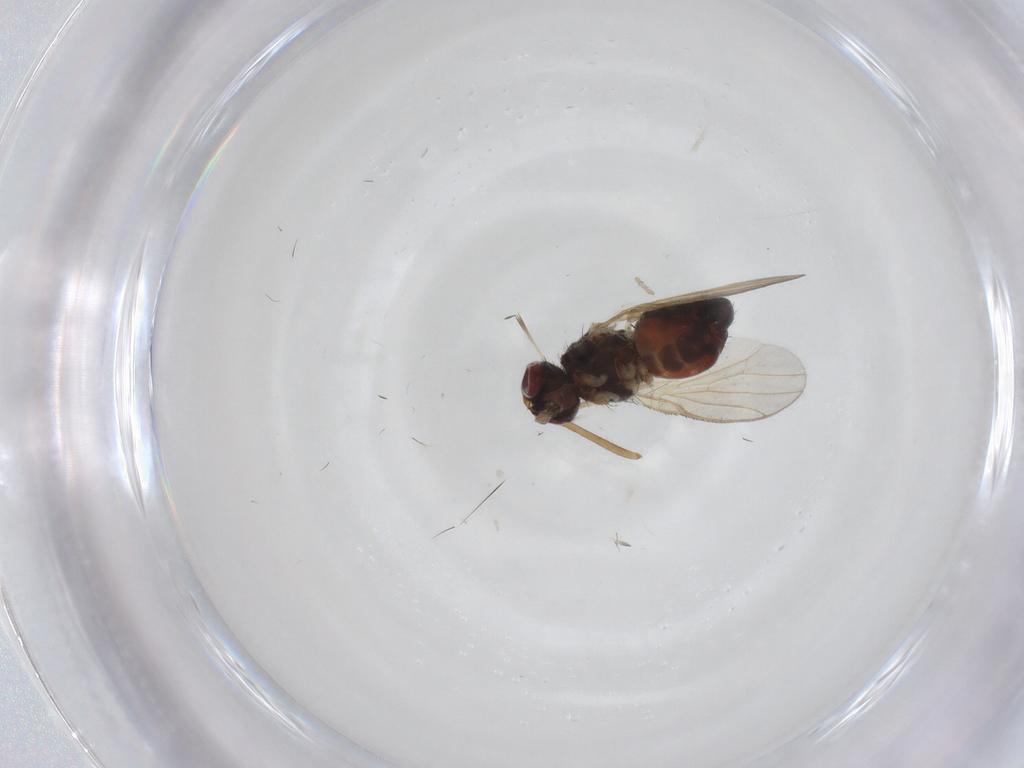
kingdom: Animalia
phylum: Arthropoda
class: Insecta
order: Diptera
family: Heleomyzidae
